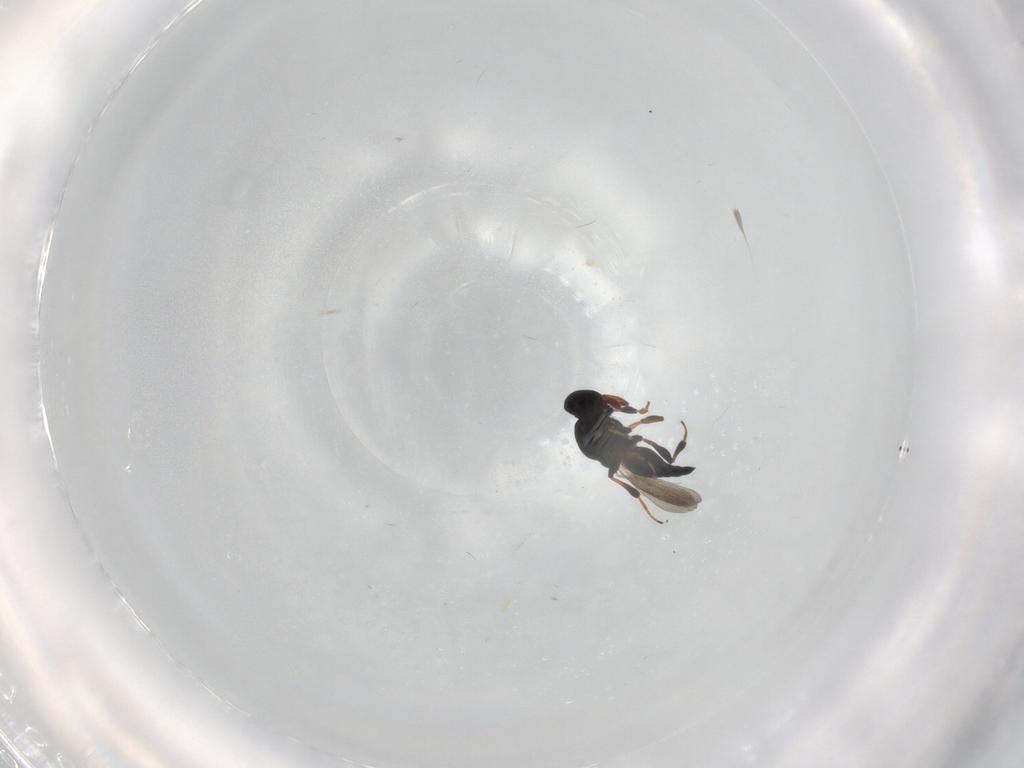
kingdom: Animalia
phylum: Arthropoda
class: Insecta
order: Hymenoptera
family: Platygastridae
